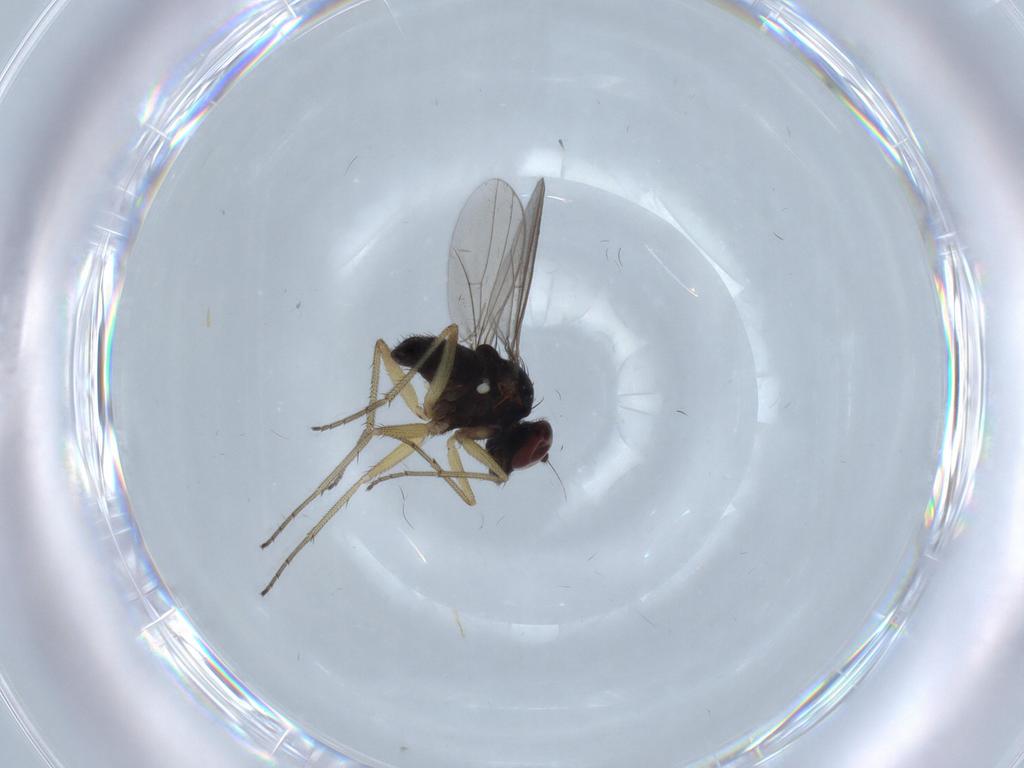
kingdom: Animalia
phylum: Arthropoda
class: Insecta
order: Diptera
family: Dolichopodidae
